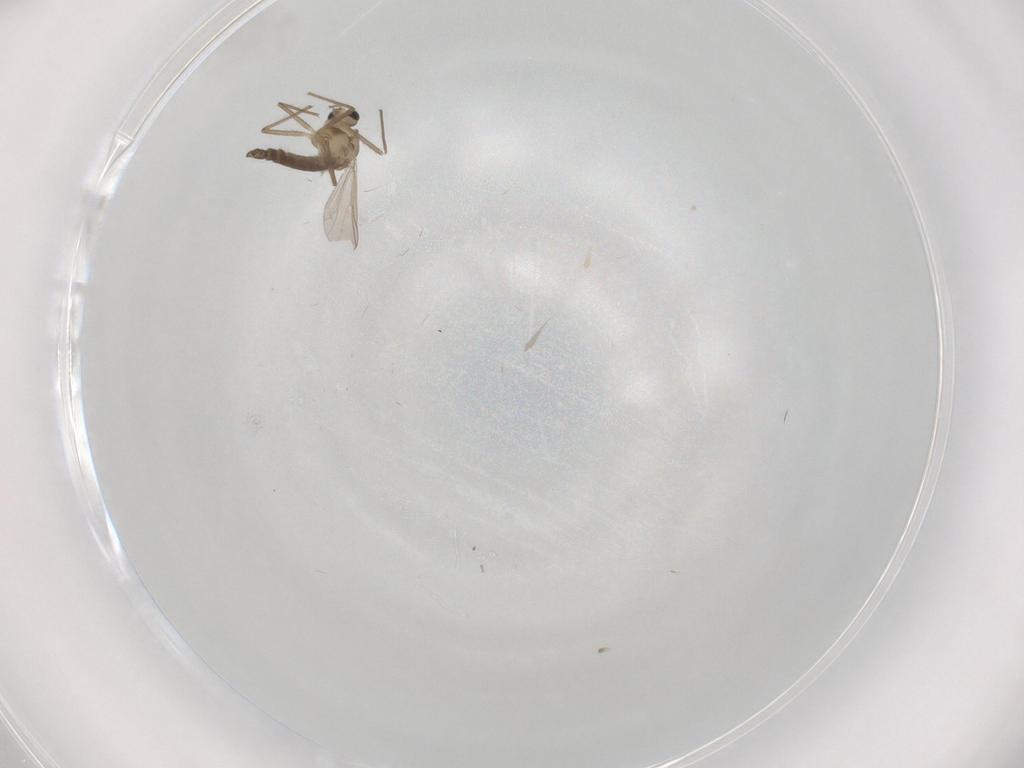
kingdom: Animalia
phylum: Arthropoda
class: Insecta
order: Diptera
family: Chironomidae
